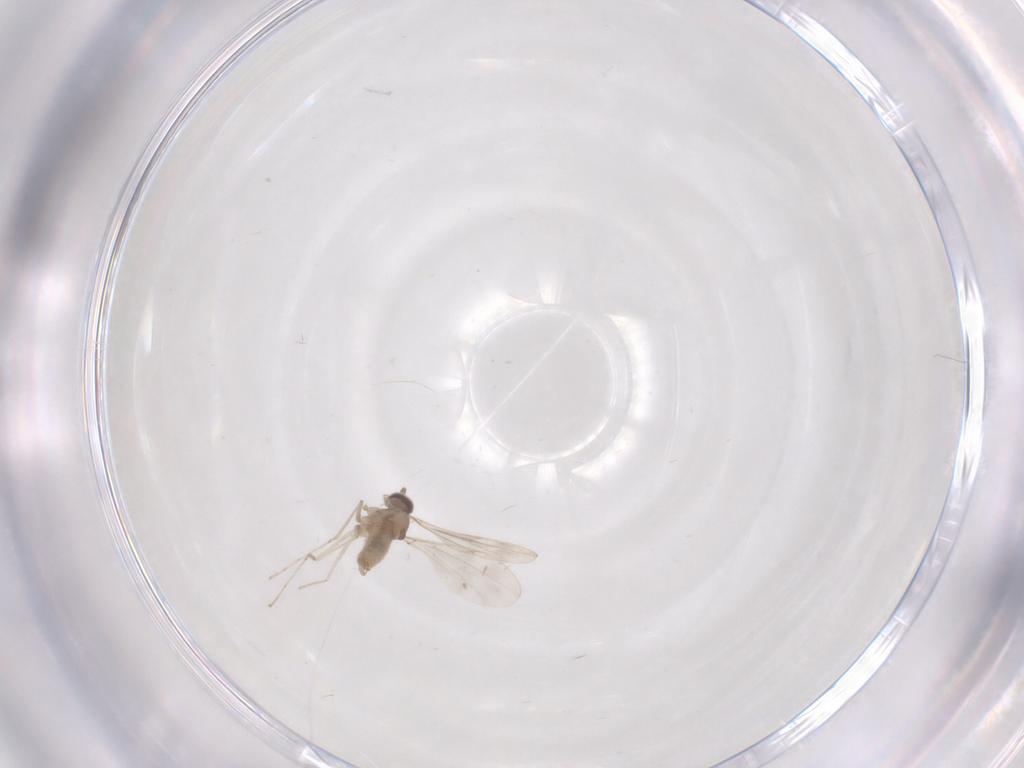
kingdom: Animalia
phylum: Arthropoda
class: Insecta
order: Diptera
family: Cecidomyiidae
